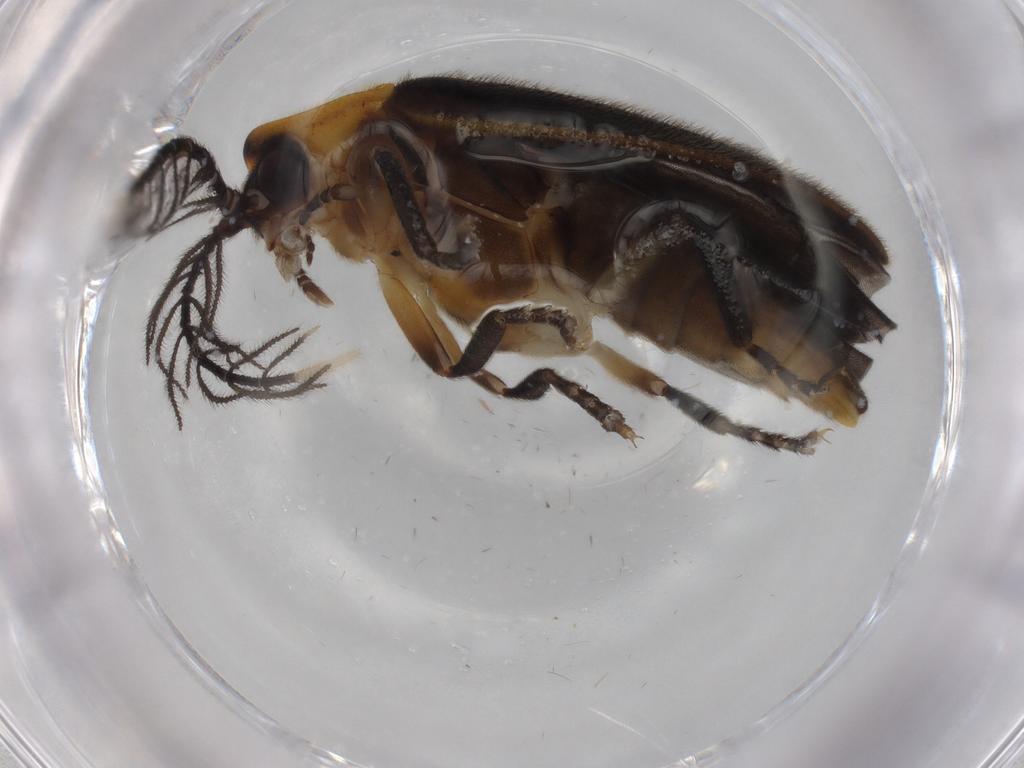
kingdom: Animalia
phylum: Arthropoda
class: Insecta
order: Coleoptera
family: Lampyridae
